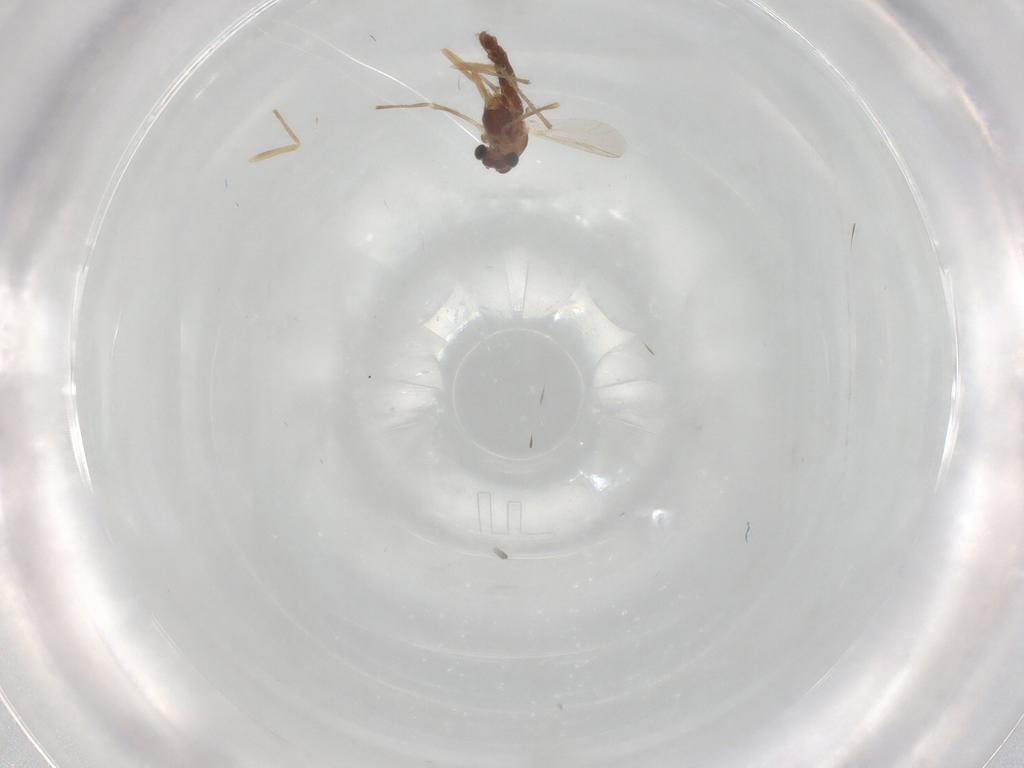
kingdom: Animalia
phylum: Arthropoda
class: Insecta
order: Diptera
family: Chironomidae
